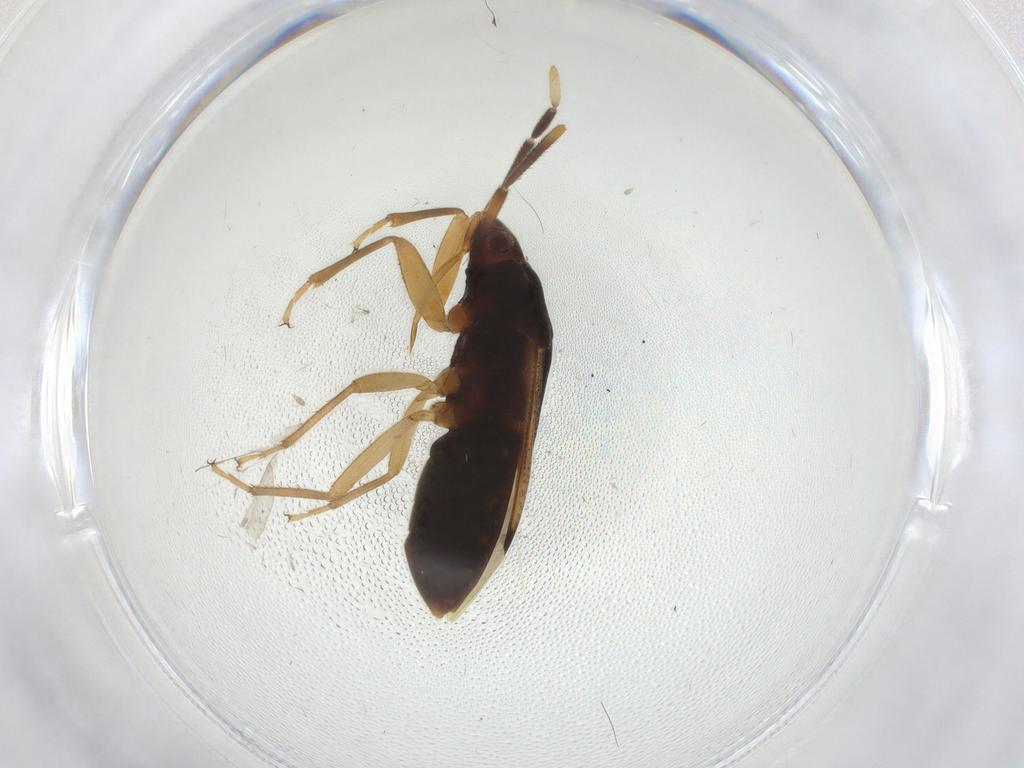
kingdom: Animalia
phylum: Arthropoda
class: Insecta
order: Hemiptera
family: Rhyparochromidae
